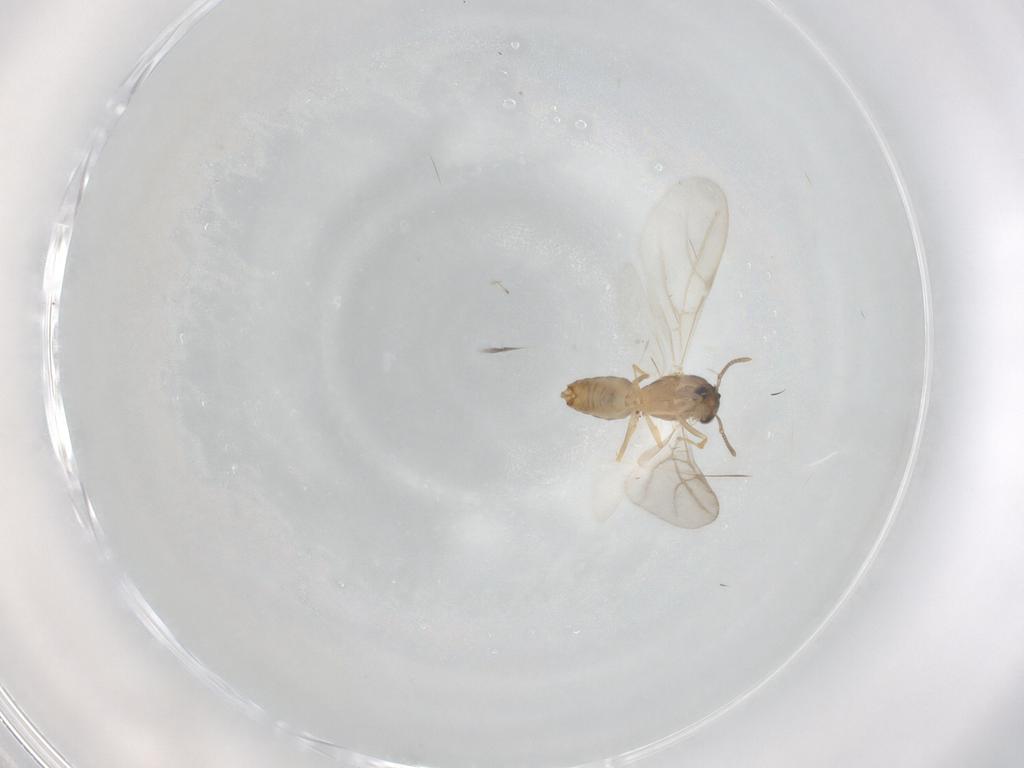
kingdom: Animalia
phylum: Arthropoda
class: Insecta
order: Hymenoptera
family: Formicidae
